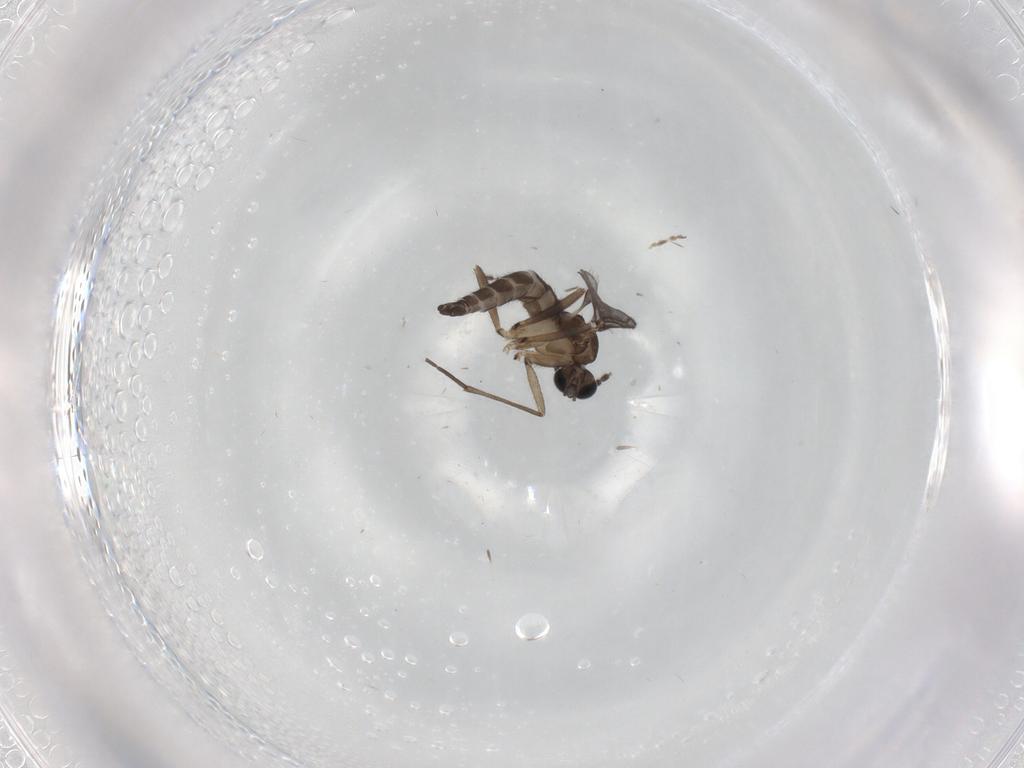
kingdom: Animalia
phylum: Arthropoda
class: Insecta
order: Diptera
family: Sciaridae
